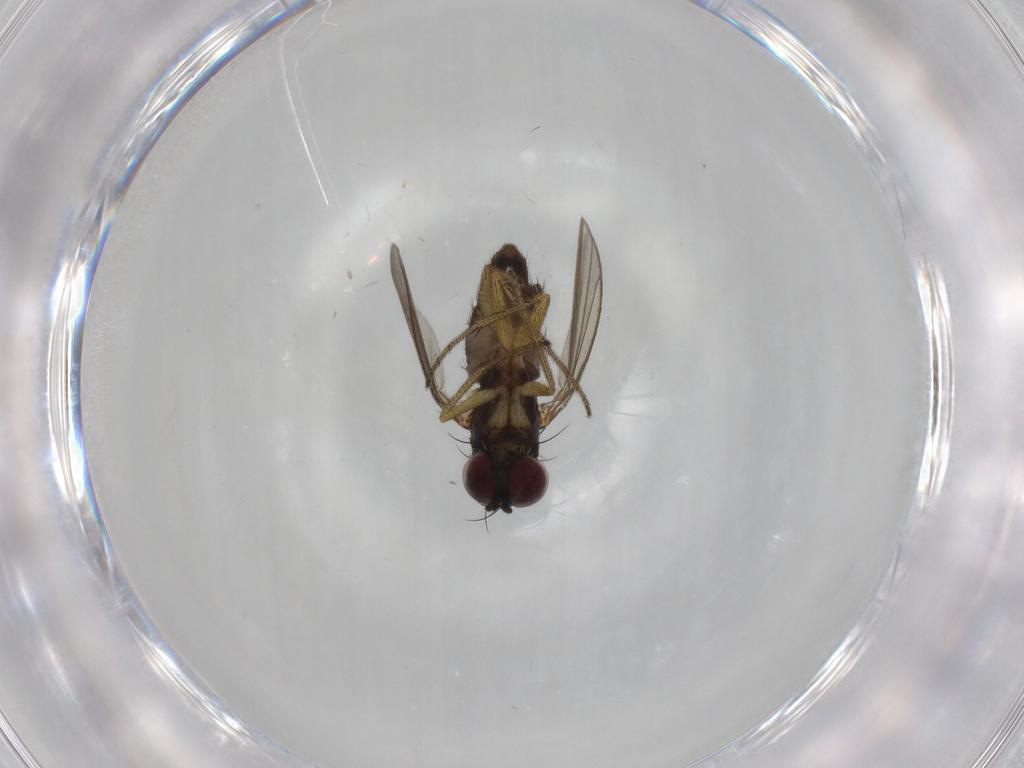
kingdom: Animalia
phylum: Arthropoda
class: Insecta
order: Diptera
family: Dolichopodidae
